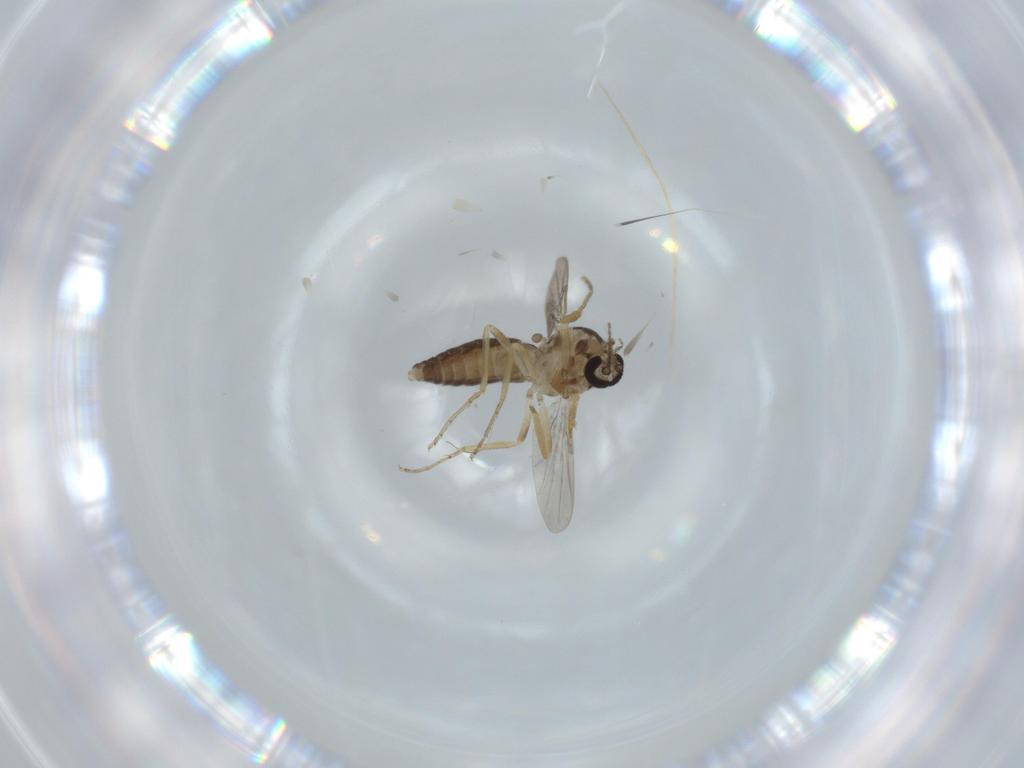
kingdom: Animalia
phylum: Arthropoda
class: Insecta
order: Diptera
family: Ceratopogonidae
